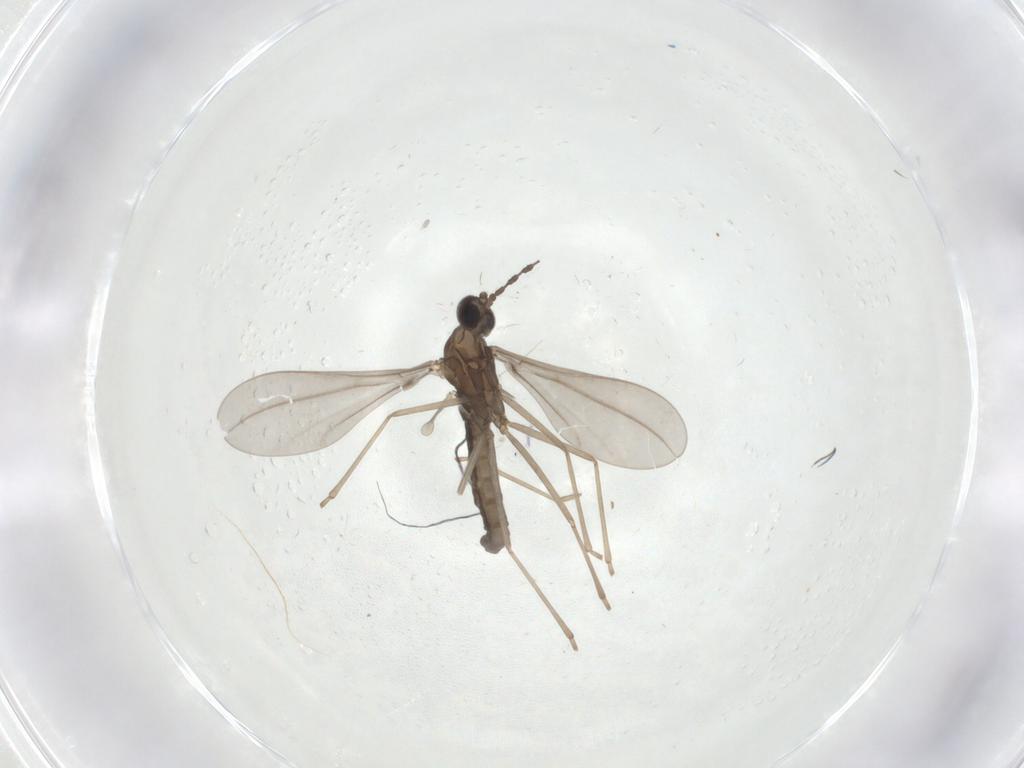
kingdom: Animalia
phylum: Arthropoda
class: Insecta
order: Diptera
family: Cecidomyiidae
